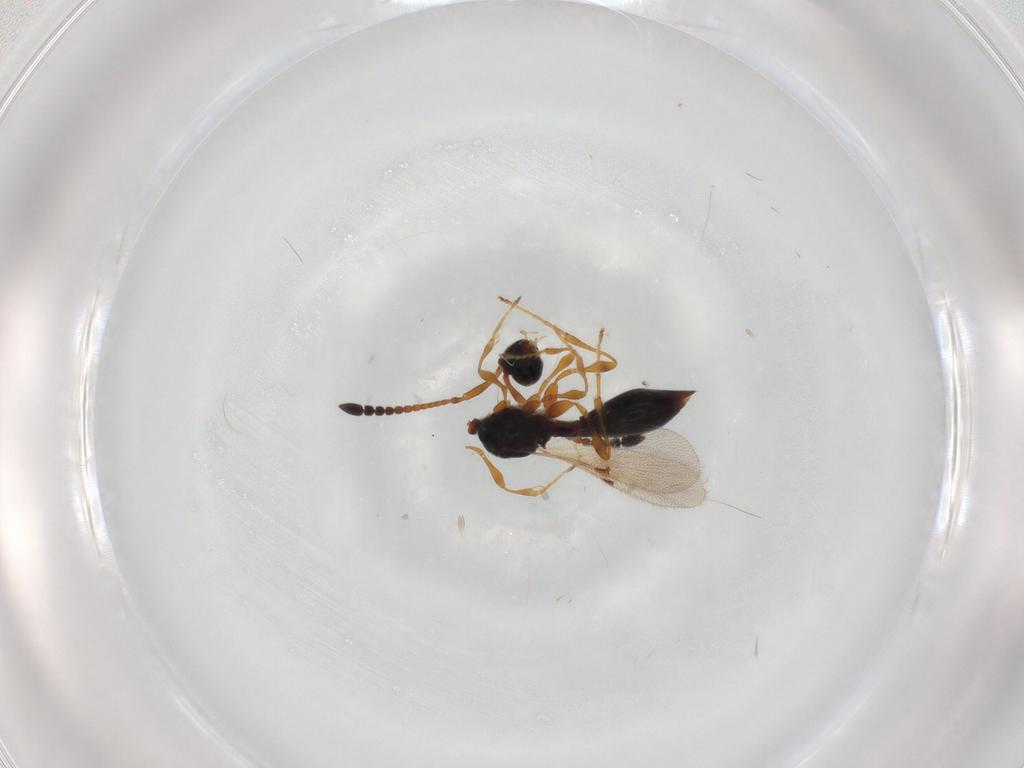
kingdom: Animalia
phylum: Arthropoda
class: Insecta
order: Hymenoptera
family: Diapriidae
